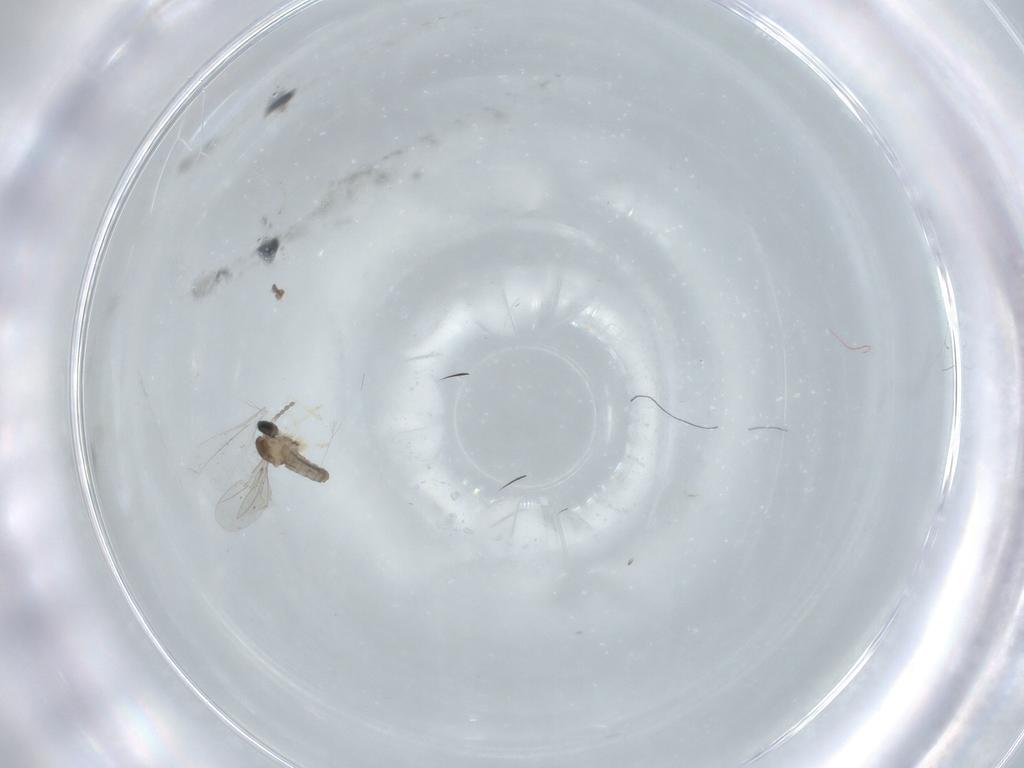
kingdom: Animalia
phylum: Arthropoda
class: Insecta
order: Diptera
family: Cecidomyiidae
